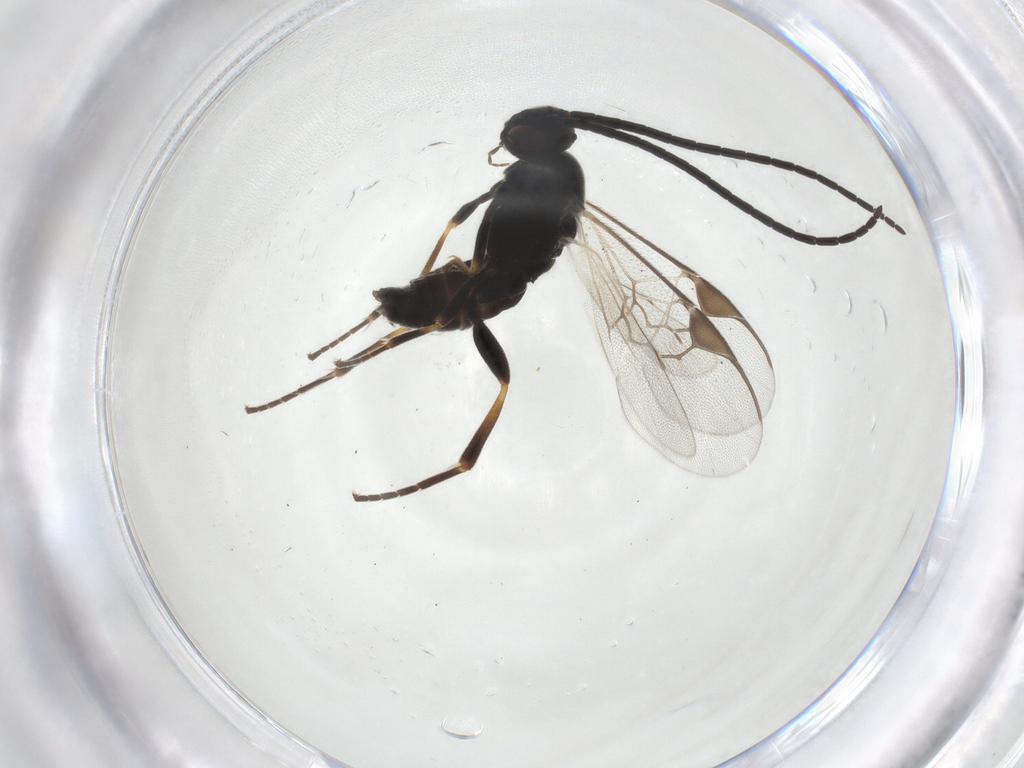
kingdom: Animalia
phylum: Arthropoda
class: Insecta
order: Hymenoptera
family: Braconidae
